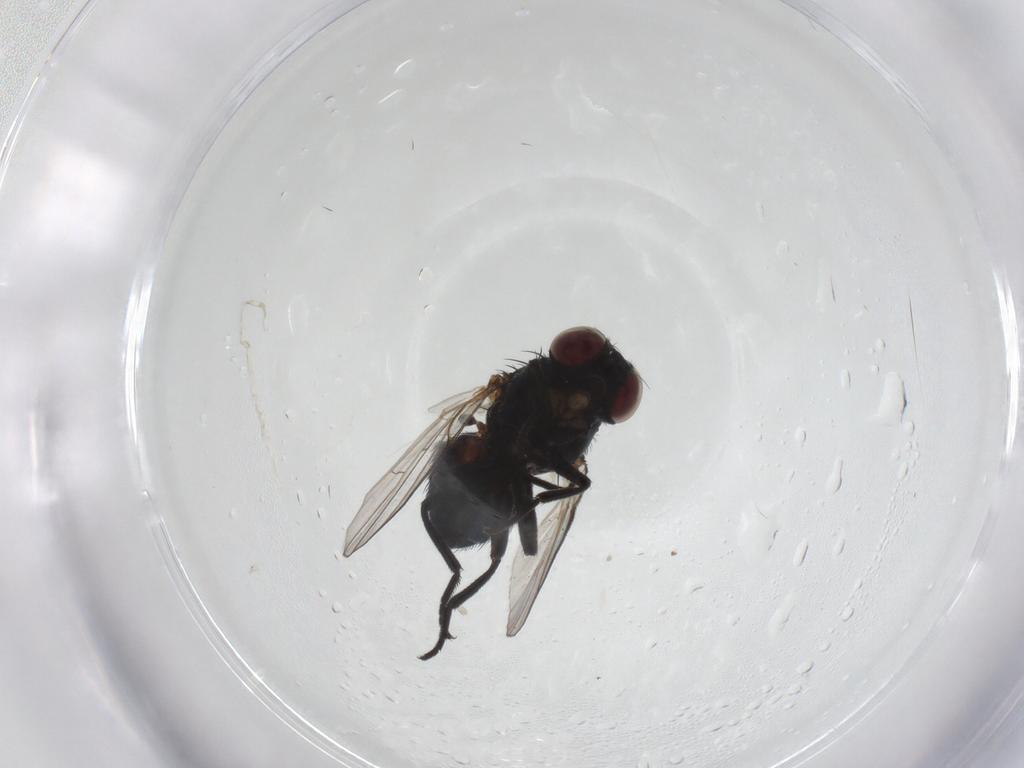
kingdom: Animalia
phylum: Arthropoda
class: Insecta
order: Diptera
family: Agromyzidae
